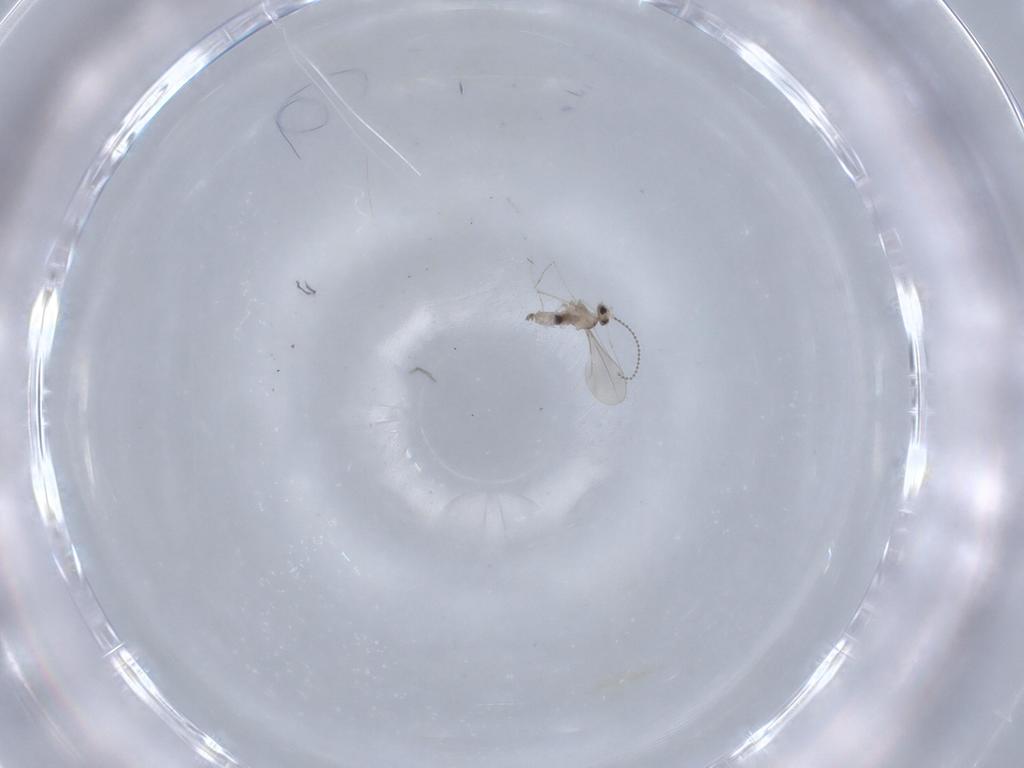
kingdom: Animalia
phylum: Arthropoda
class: Insecta
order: Diptera
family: Cecidomyiidae
